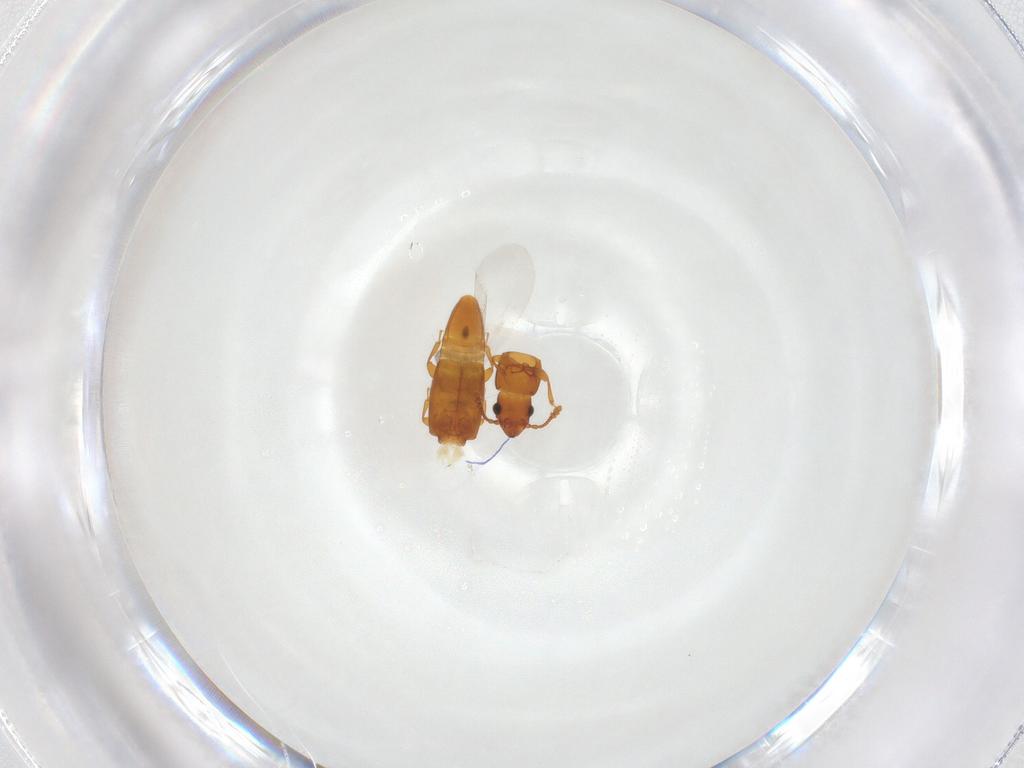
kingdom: Animalia
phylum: Arthropoda
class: Insecta
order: Coleoptera
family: Smicripidae
